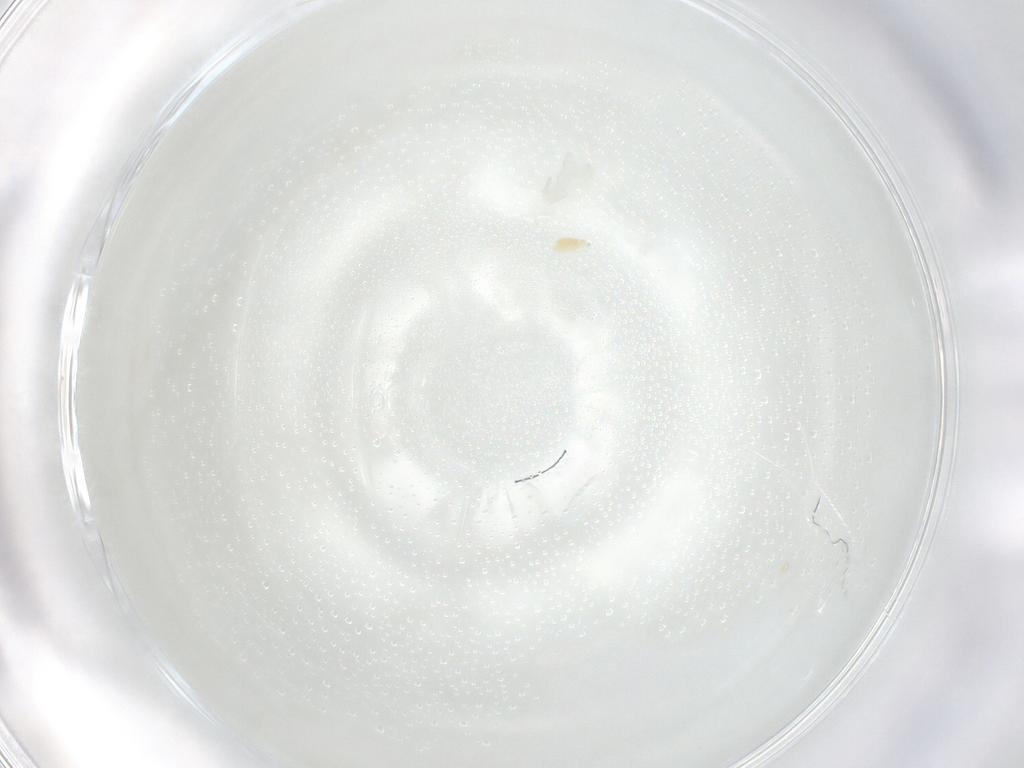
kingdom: Animalia
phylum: Arthropoda
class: Arachnida
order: Trombidiformes
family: Eupodidae
